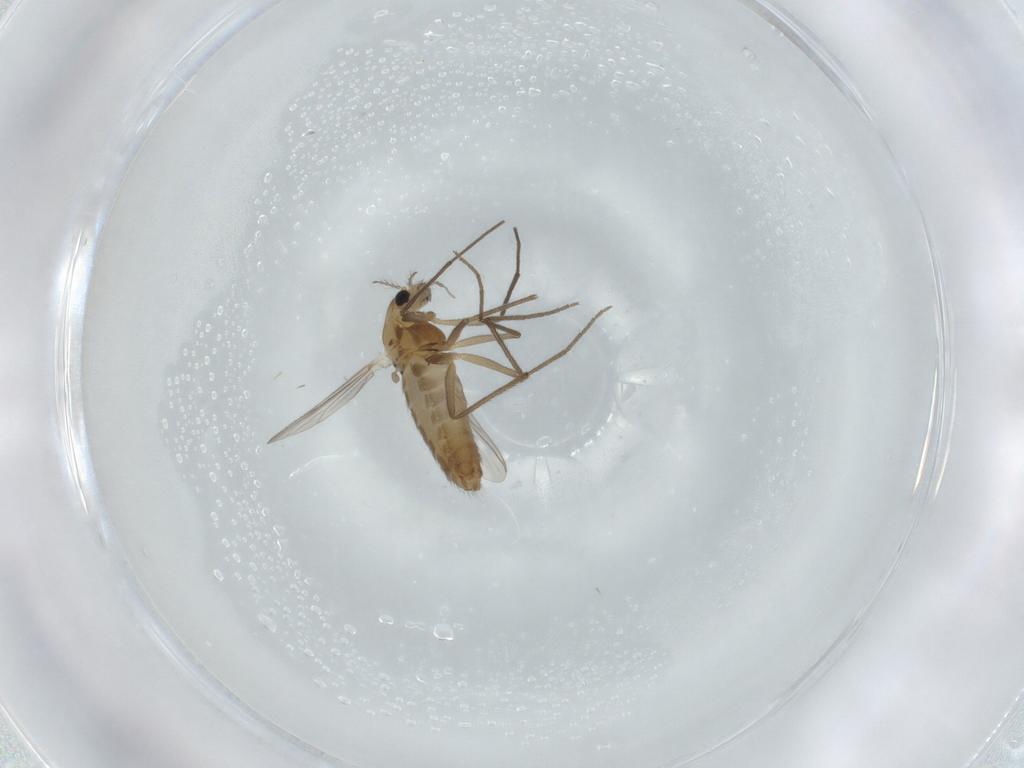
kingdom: Animalia
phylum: Arthropoda
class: Insecta
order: Diptera
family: Chironomidae
